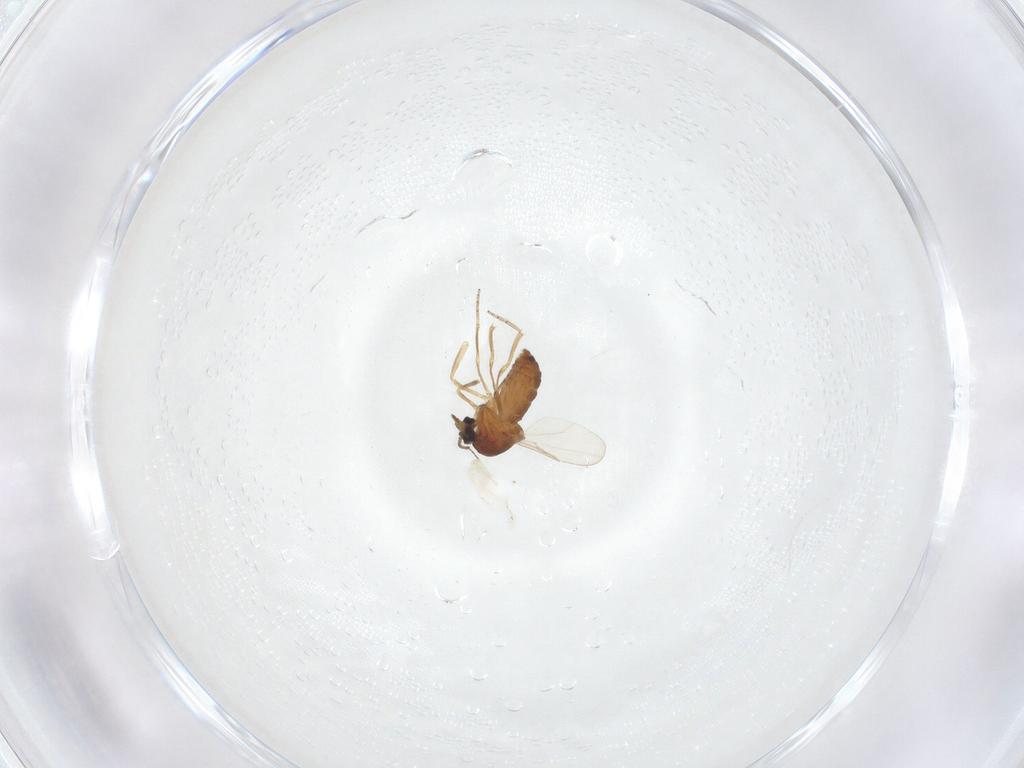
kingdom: Animalia
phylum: Arthropoda
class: Insecta
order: Diptera
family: Ceratopogonidae
